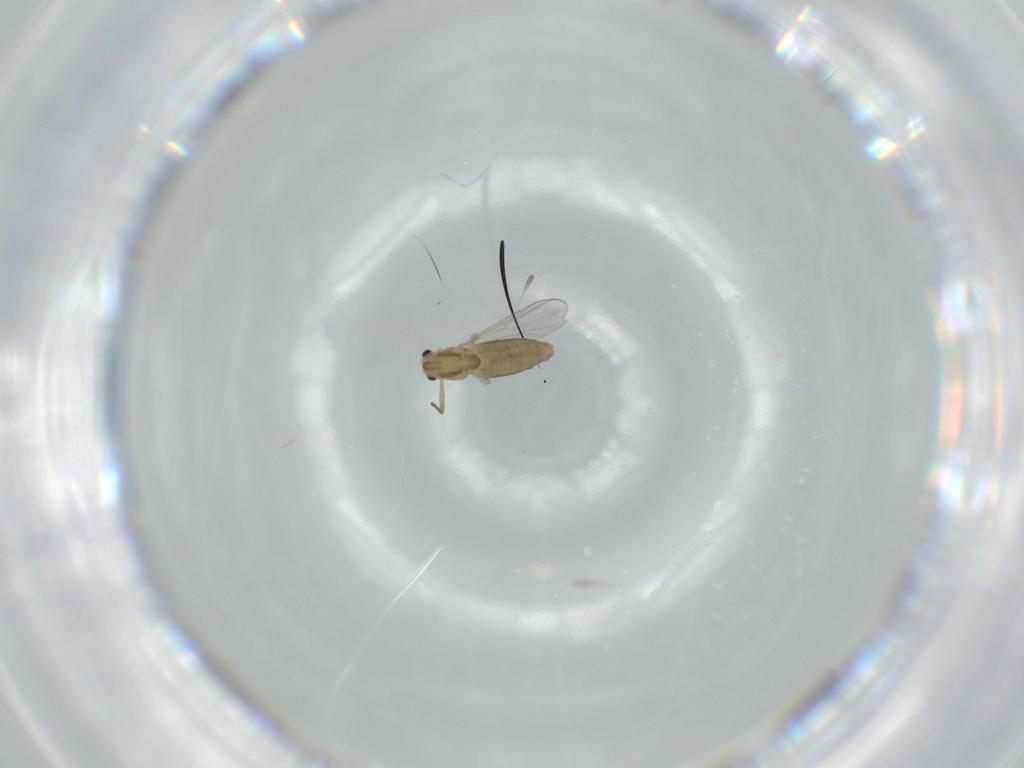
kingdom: Animalia
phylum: Arthropoda
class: Insecta
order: Diptera
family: Chironomidae
